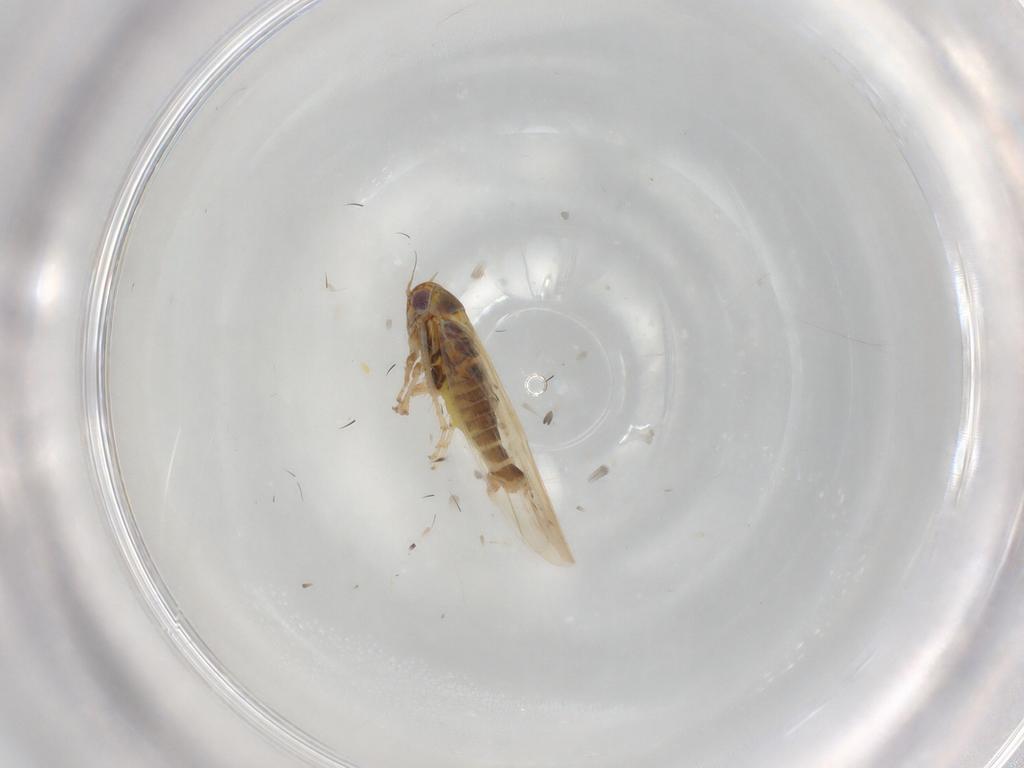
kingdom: Animalia
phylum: Arthropoda
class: Insecta
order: Hemiptera
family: Cicadellidae
